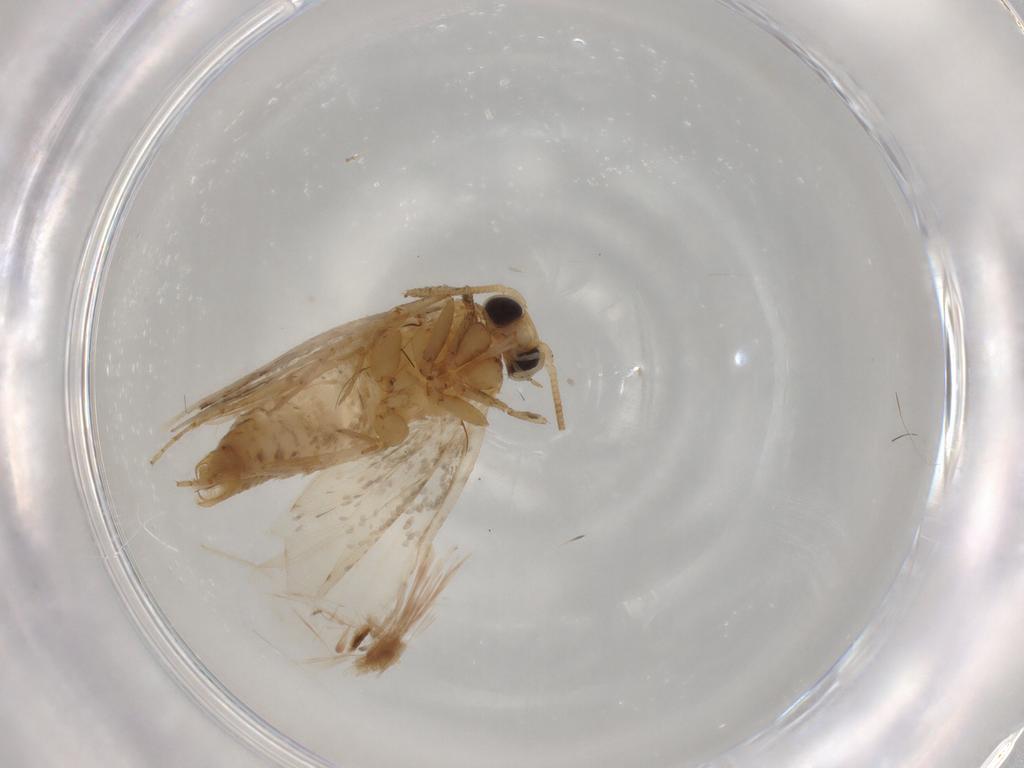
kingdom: Animalia
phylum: Arthropoda
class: Insecta
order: Lepidoptera
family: Tineidae
